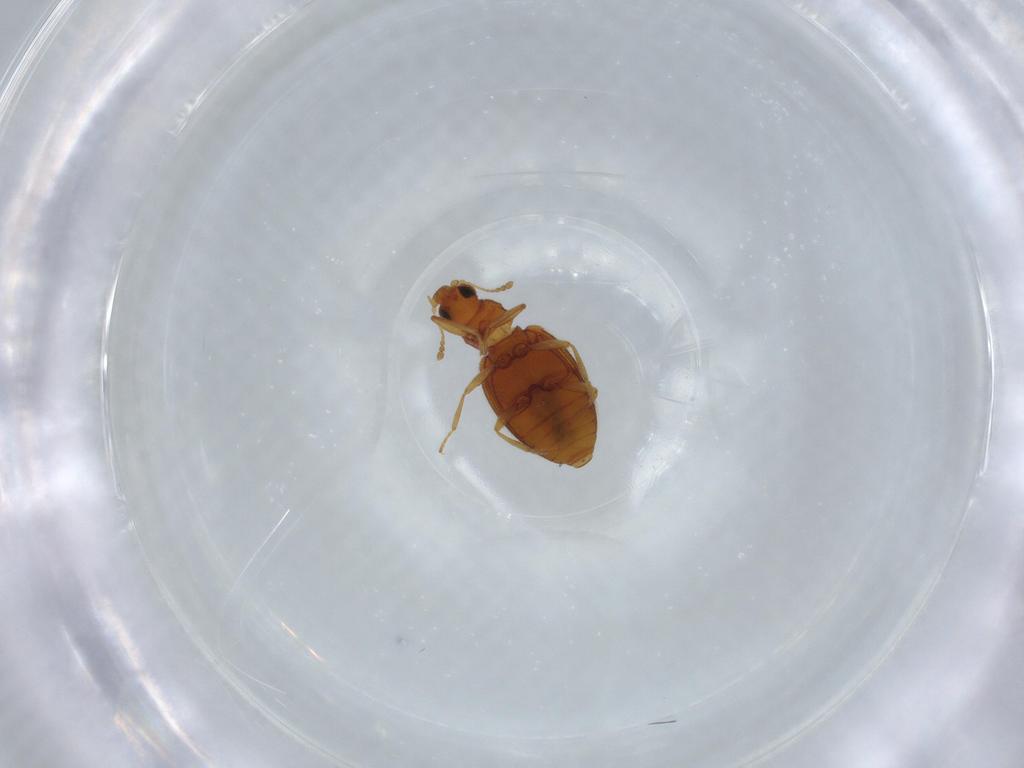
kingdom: Animalia
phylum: Arthropoda
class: Insecta
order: Coleoptera
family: Latridiidae
